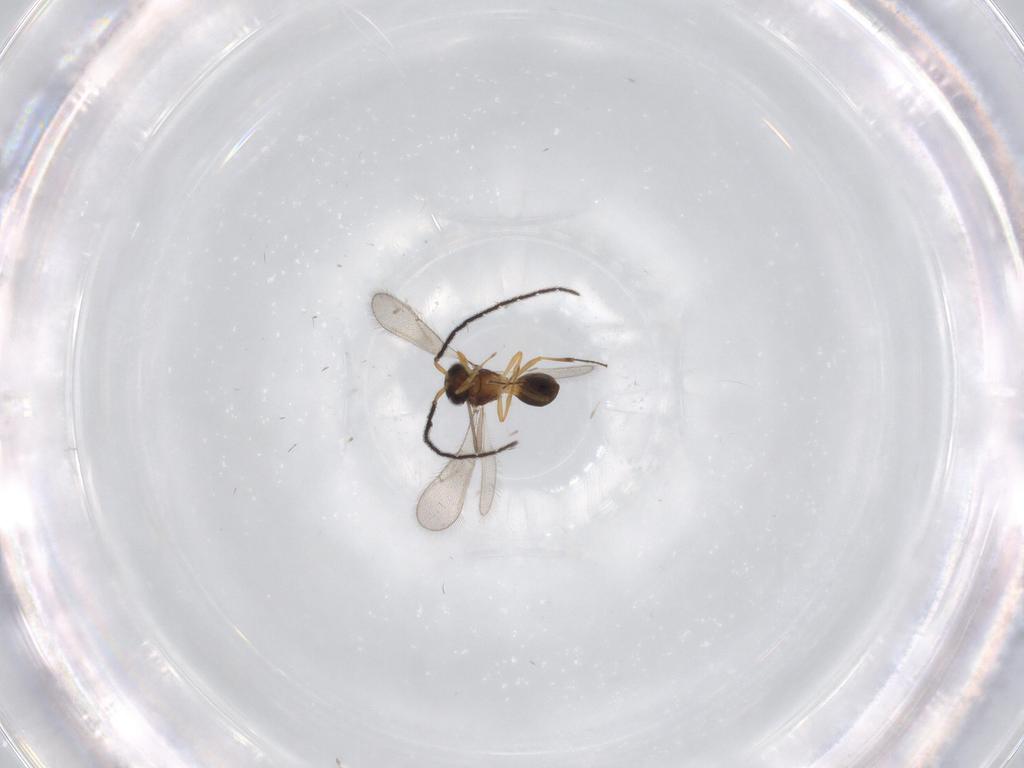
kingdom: Animalia
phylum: Arthropoda
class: Insecta
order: Hymenoptera
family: Scelionidae
